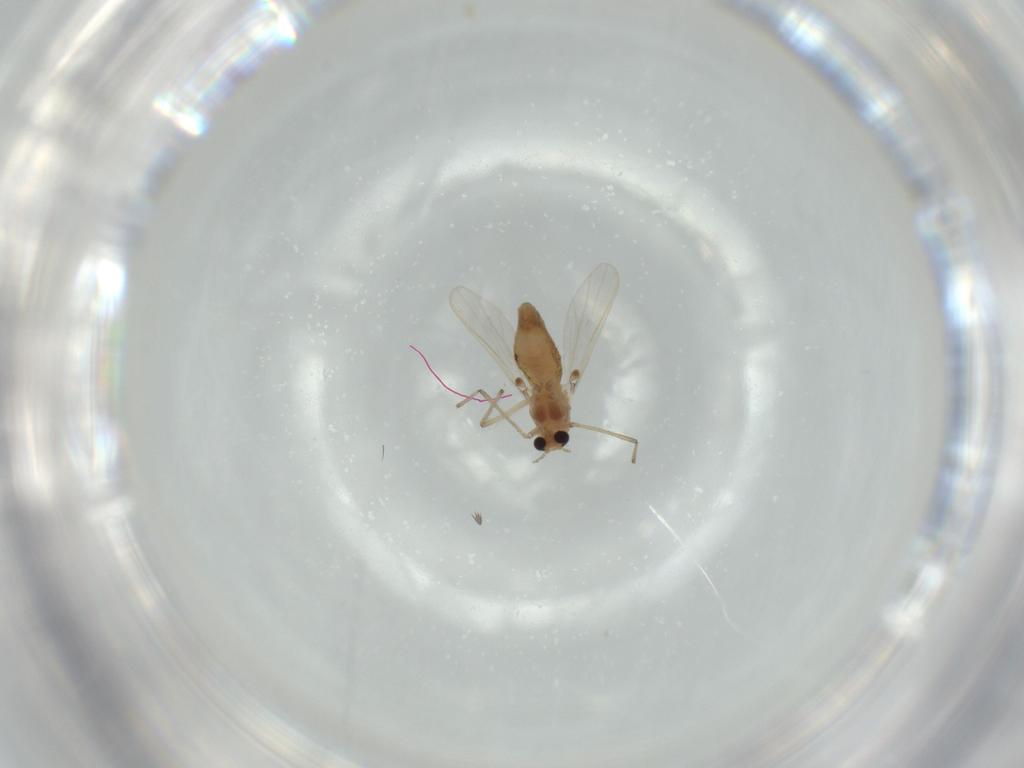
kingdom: Animalia
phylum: Arthropoda
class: Insecta
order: Diptera
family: Chironomidae
